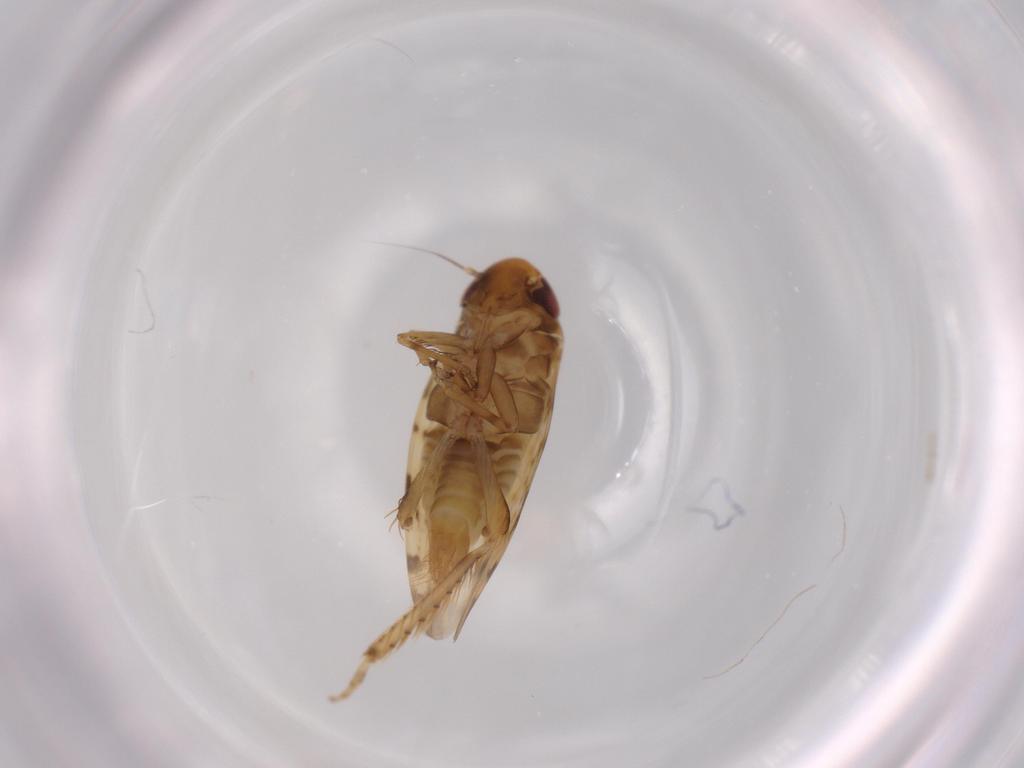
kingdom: Animalia
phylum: Arthropoda
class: Insecta
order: Hemiptera
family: Cicadellidae
